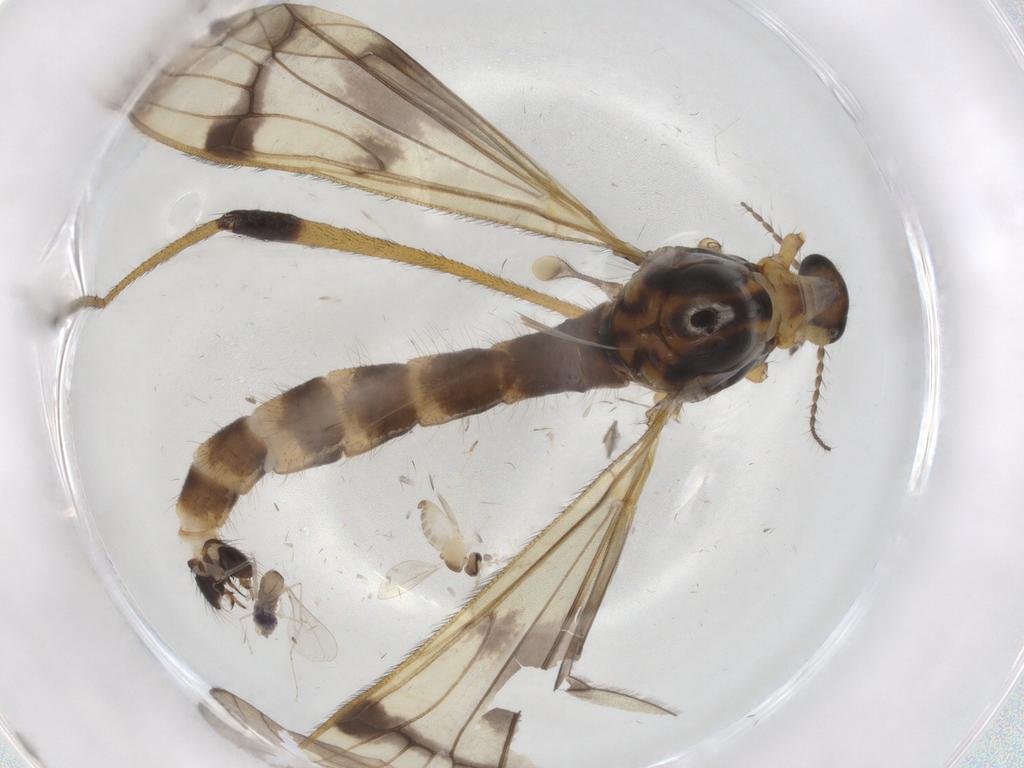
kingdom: Animalia
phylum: Arthropoda
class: Insecta
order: Diptera
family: Limoniidae
